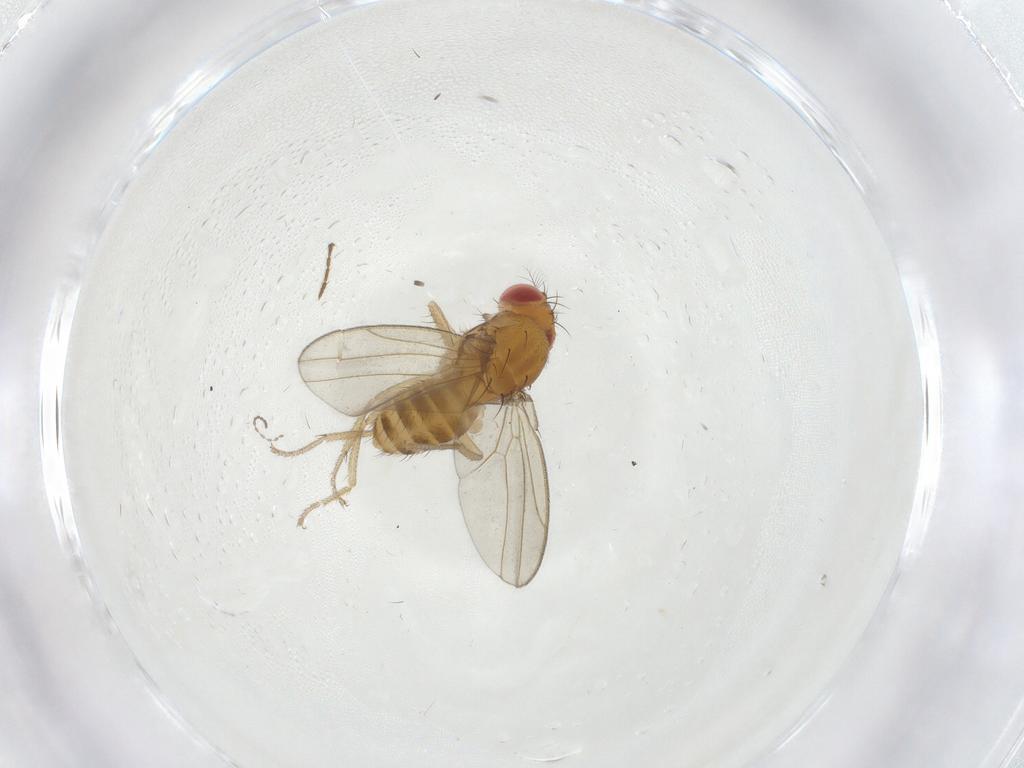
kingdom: Animalia
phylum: Arthropoda
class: Insecta
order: Diptera
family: Drosophilidae
